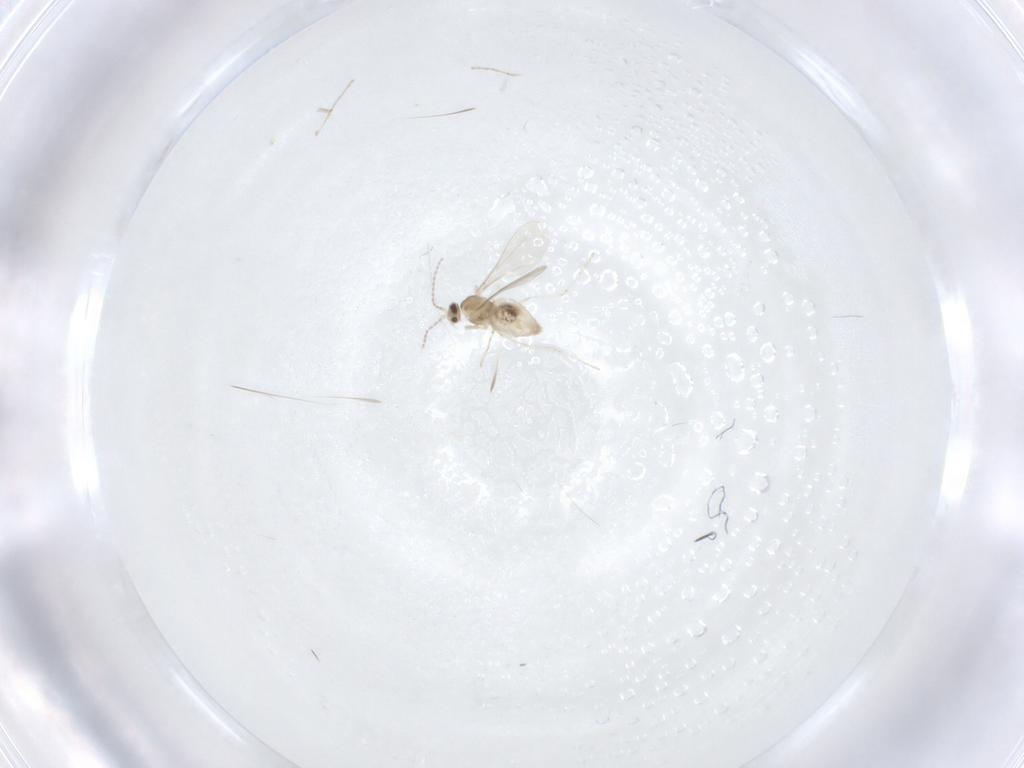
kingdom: Animalia
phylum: Arthropoda
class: Insecta
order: Diptera
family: Cecidomyiidae
